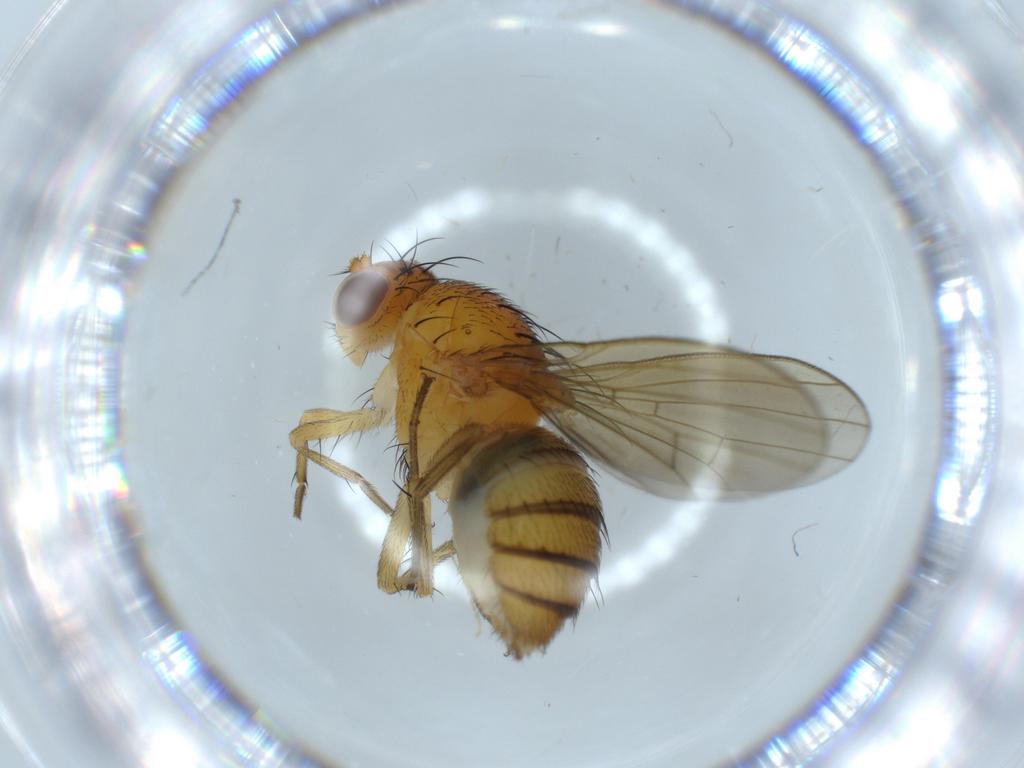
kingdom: Animalia
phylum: Arthropoda
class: Insecta
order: Diptera
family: Lauxaniidae
